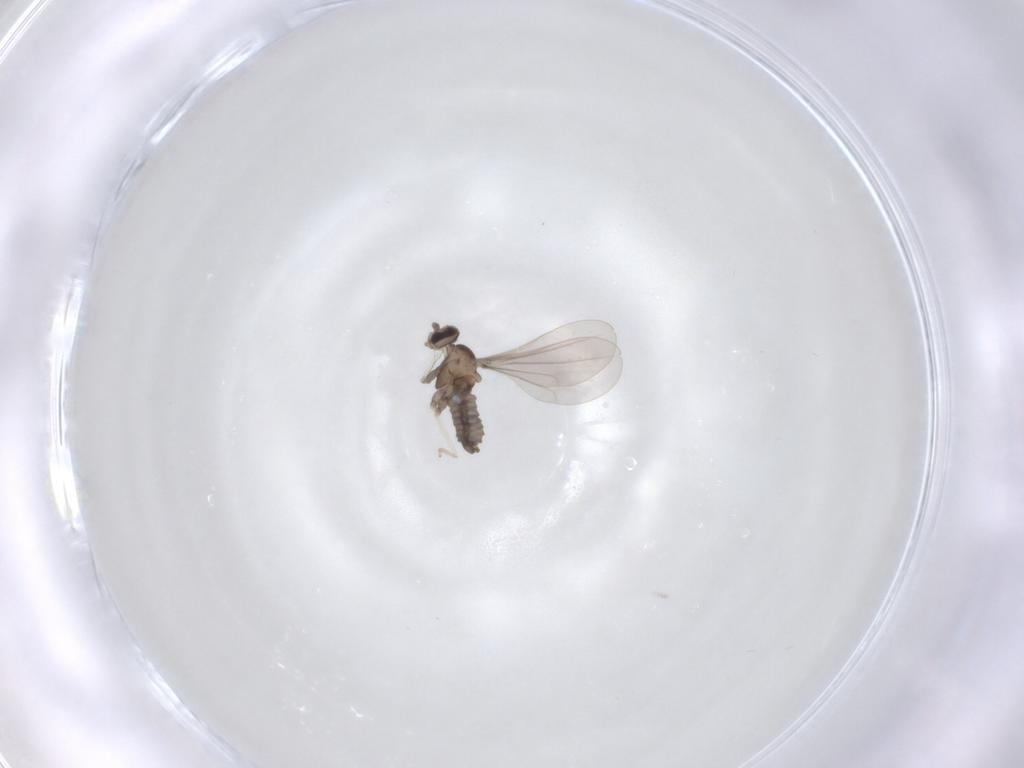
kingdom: Animalia
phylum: Arthropoda
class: Insecta
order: Diptera
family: Cecidomyiidae
